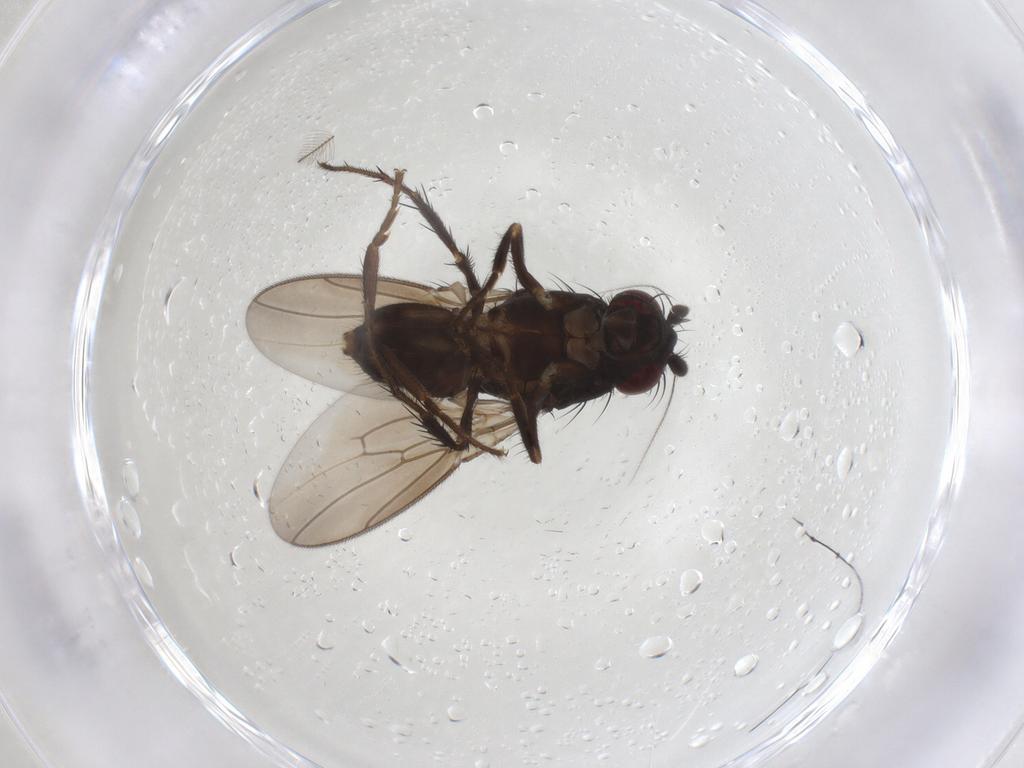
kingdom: Animalia
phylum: Arthropoda
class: Insecta
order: Diptera
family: Sphaeroceridae
